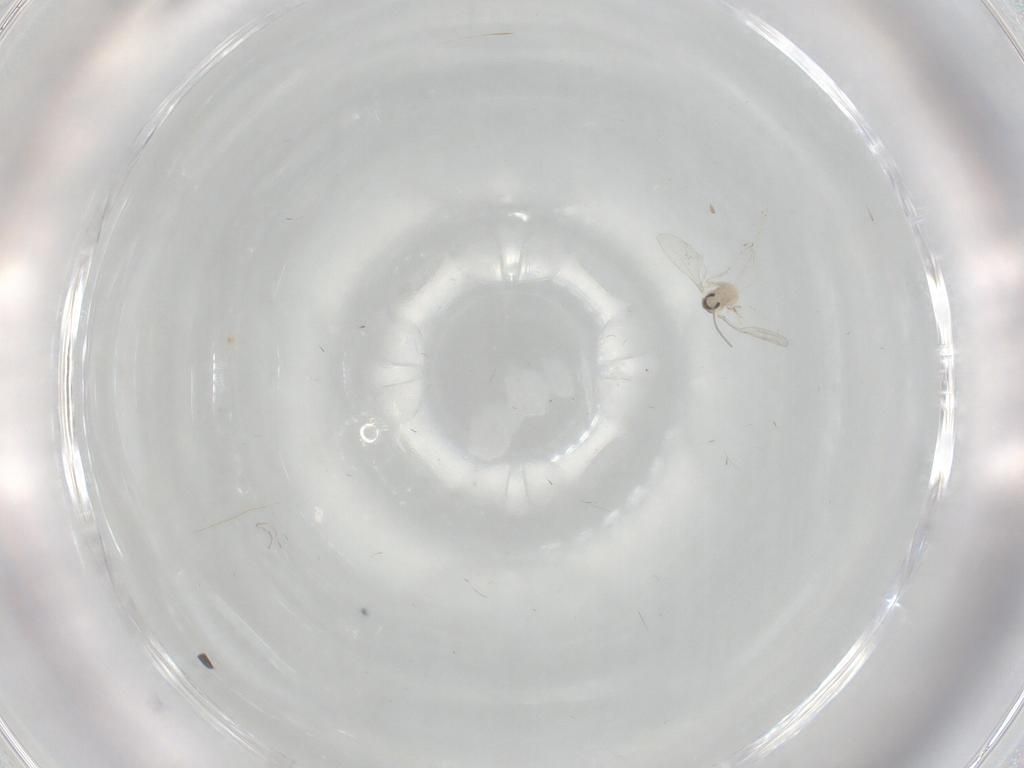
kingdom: Animalia
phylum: Arthropoda
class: Insecta
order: Diptera
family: Cecidomyiidae
